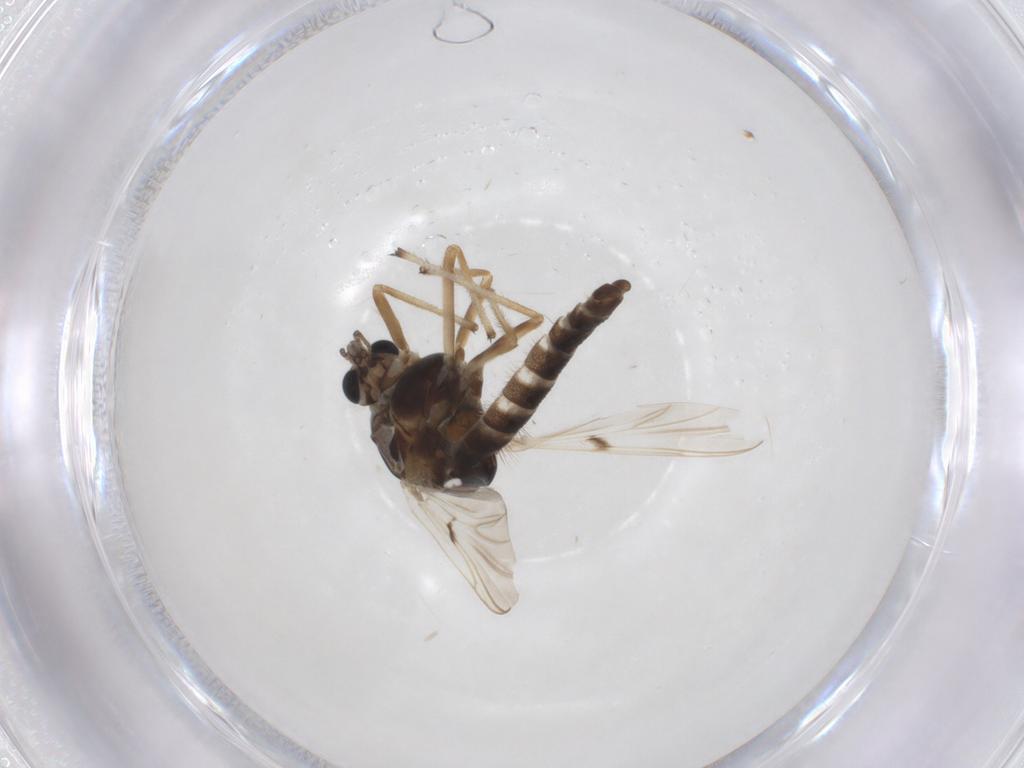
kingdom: Animalia
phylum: Arthropoda
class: Insecta
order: Diptera
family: Chironomidae
